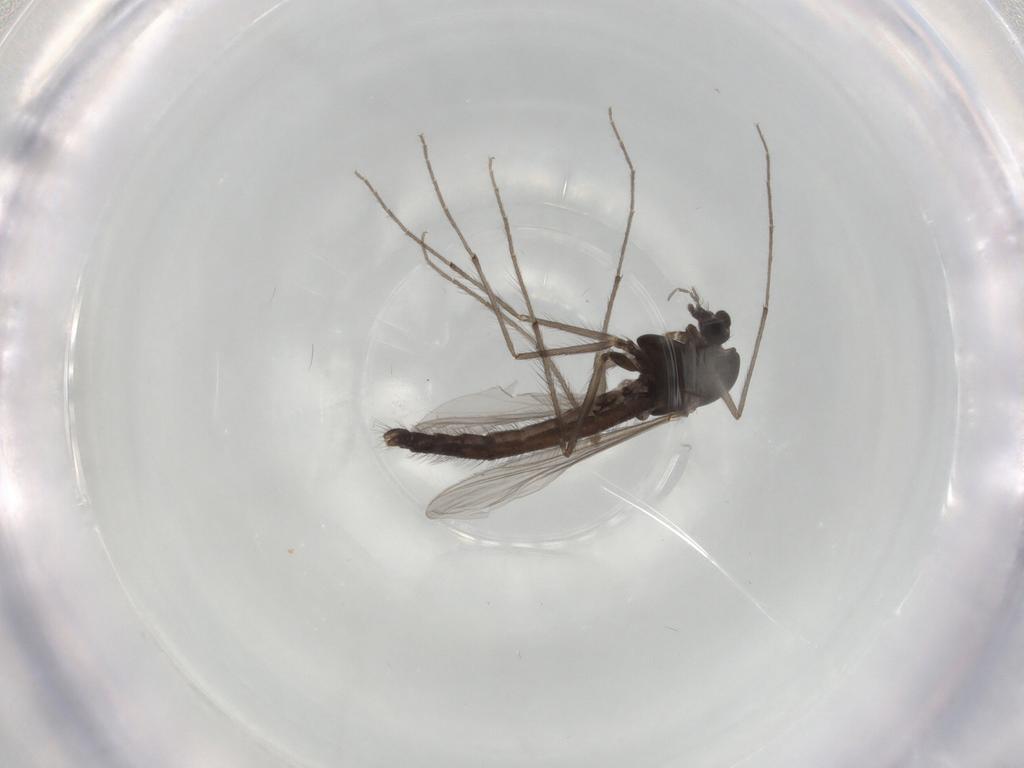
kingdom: Animalia
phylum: Arthropoda
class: Insecta
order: Diptera
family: Chironomidae
